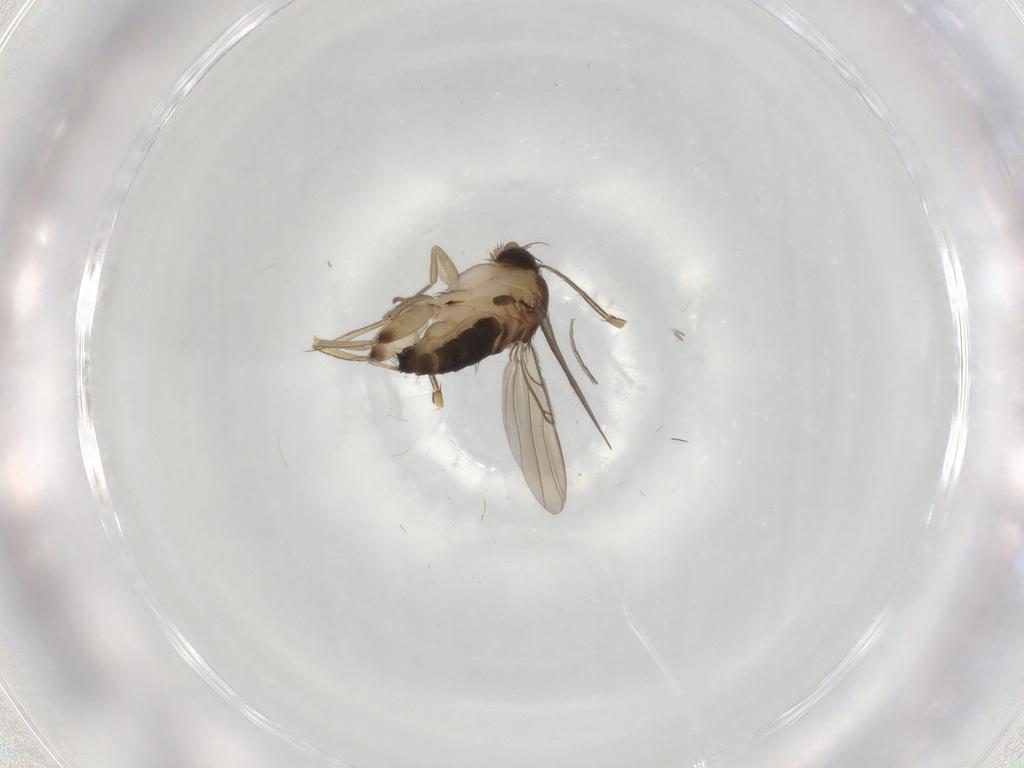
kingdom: Animalia
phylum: Arthropoda
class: Insecta
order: Diptera
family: Phoridae
